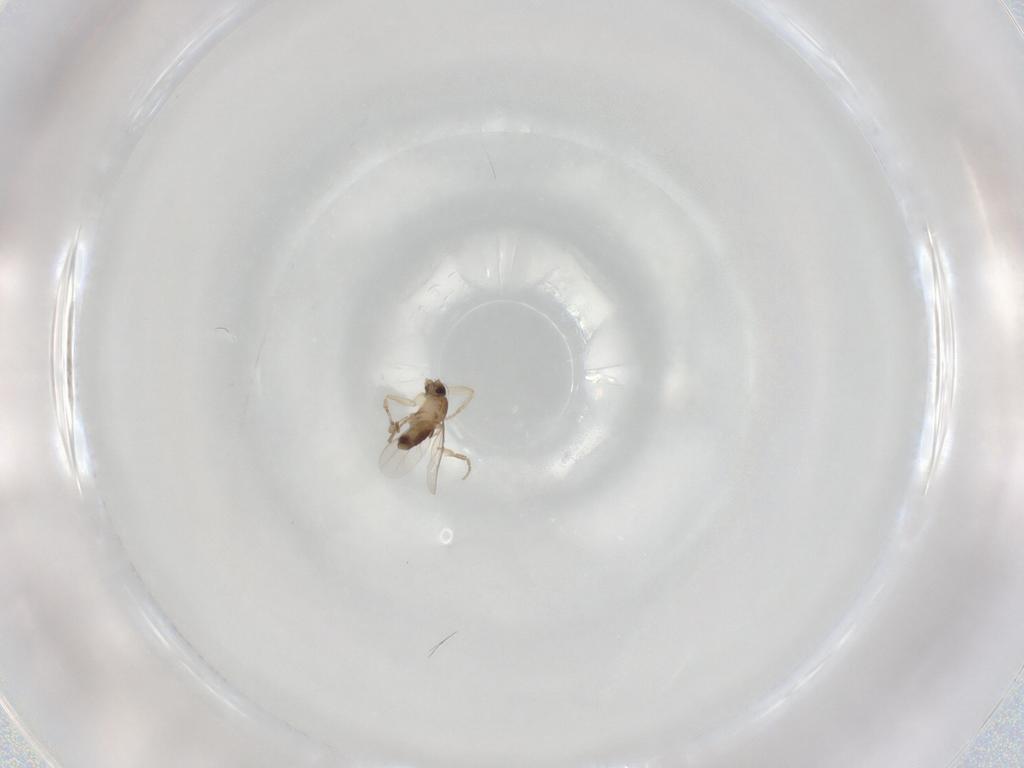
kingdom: Animalia
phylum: Arthropoda
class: Insecta
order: Diptera
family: Phoridae
